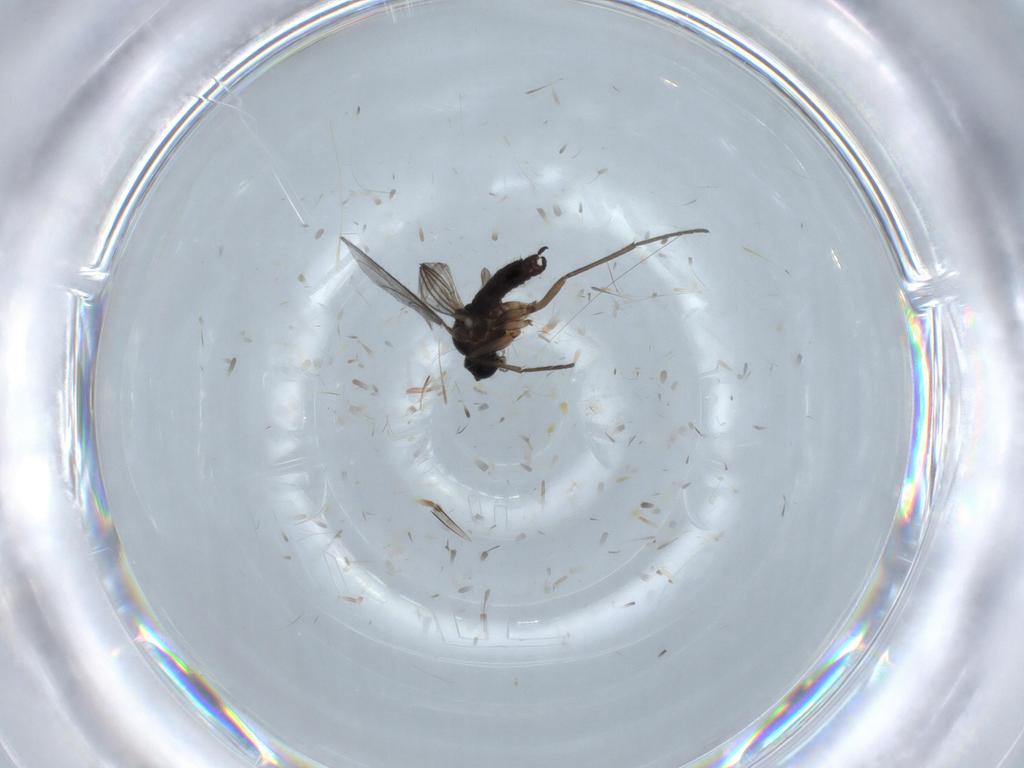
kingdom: Animalia
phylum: Arthropoda
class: Insecta
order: Diptera
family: Sciaridae
